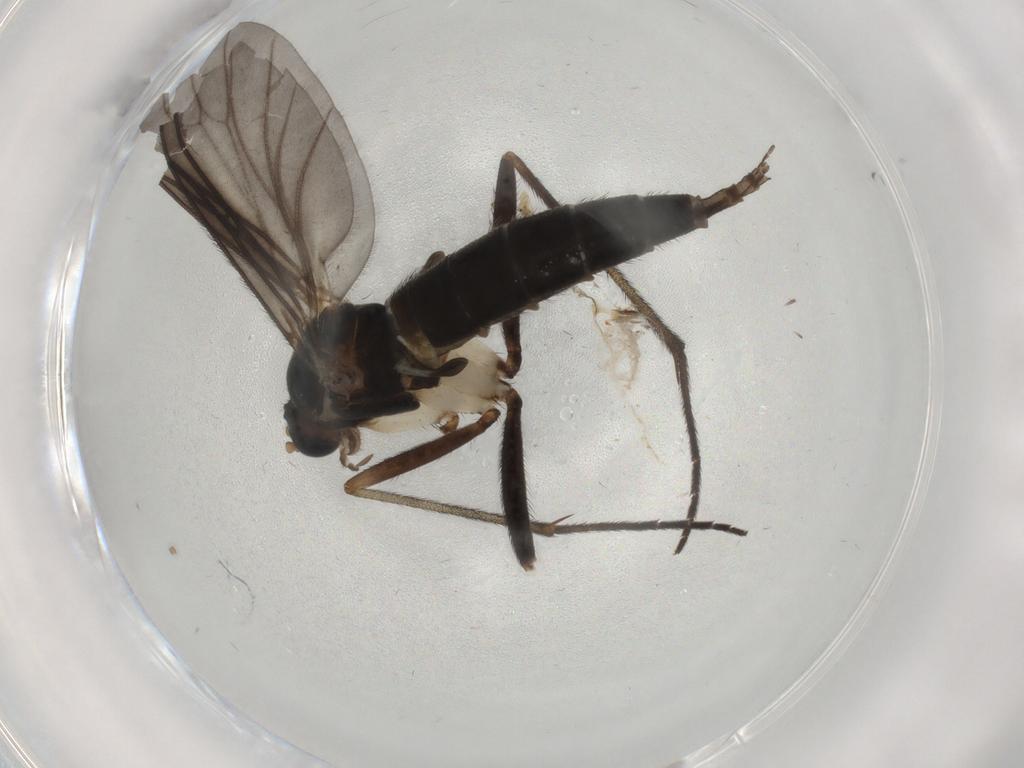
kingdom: Animalia
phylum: Arthropoda
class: Insecta
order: Diptera
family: Sciaridae
